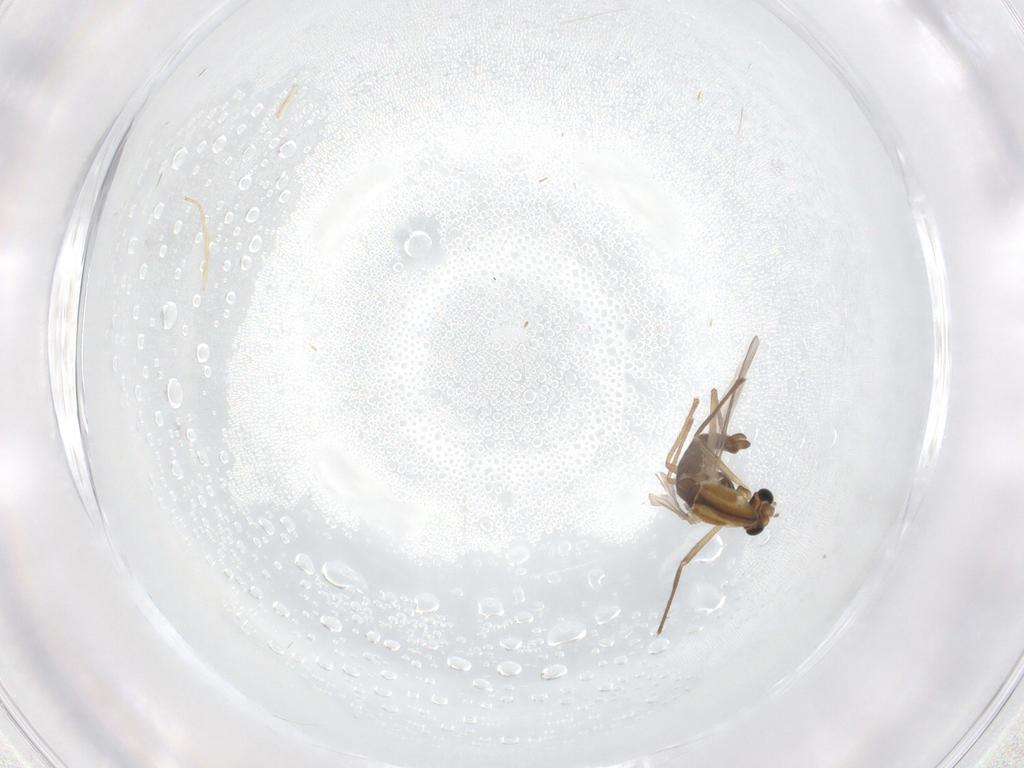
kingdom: Animalia
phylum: Arthropoda
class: Insecta
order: Diptera
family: Chironomidae
